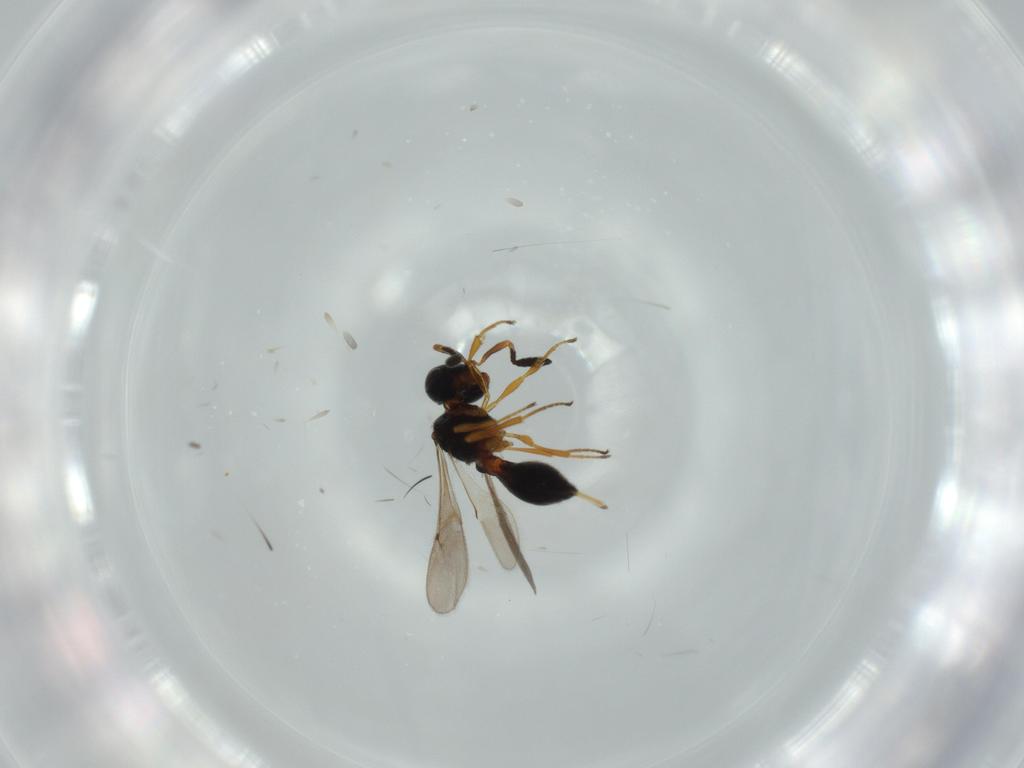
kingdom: Animalia
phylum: Arthropoda
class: Insecta
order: Hymenoptera
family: Scelionidae
